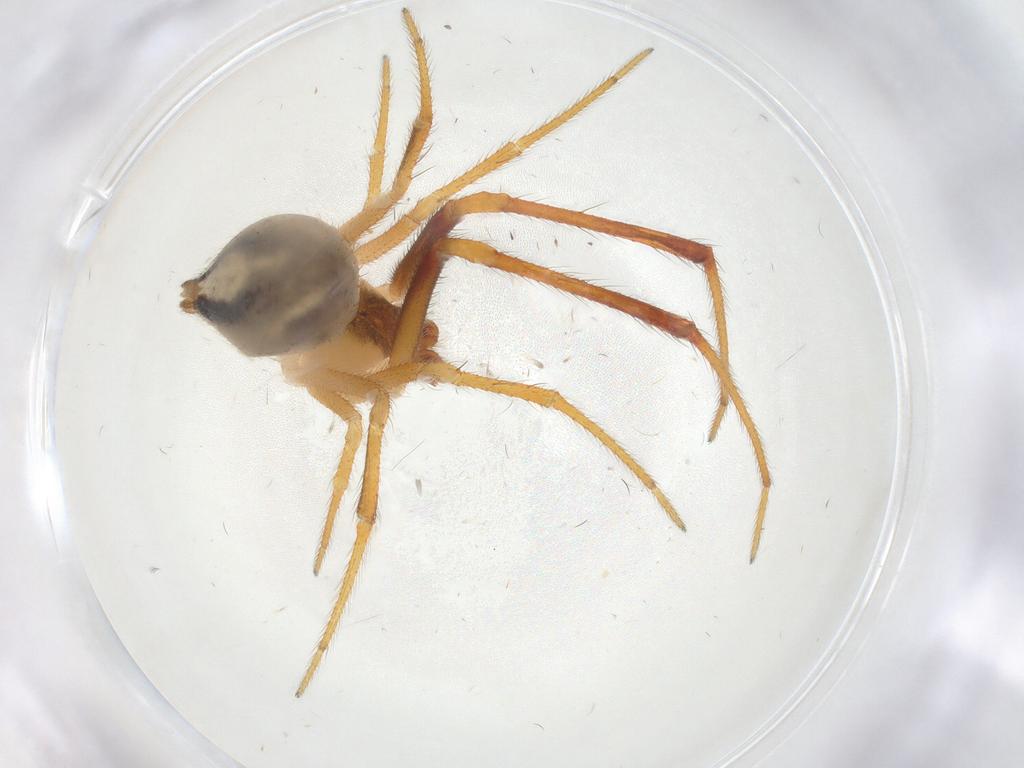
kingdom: Animalia
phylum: Arthropoda
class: Arachnida
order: Araneae
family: Theridiidae
